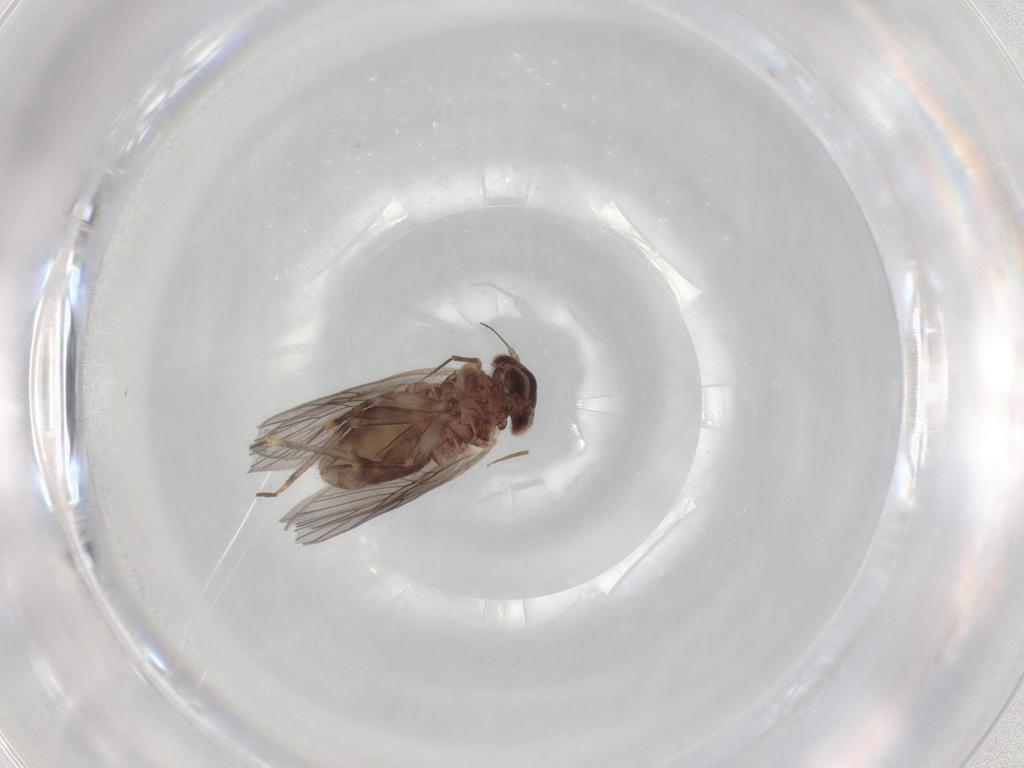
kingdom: Animalia
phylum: Arthropoda
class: Insecta
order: Psocodea
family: Lepidopsocidae
